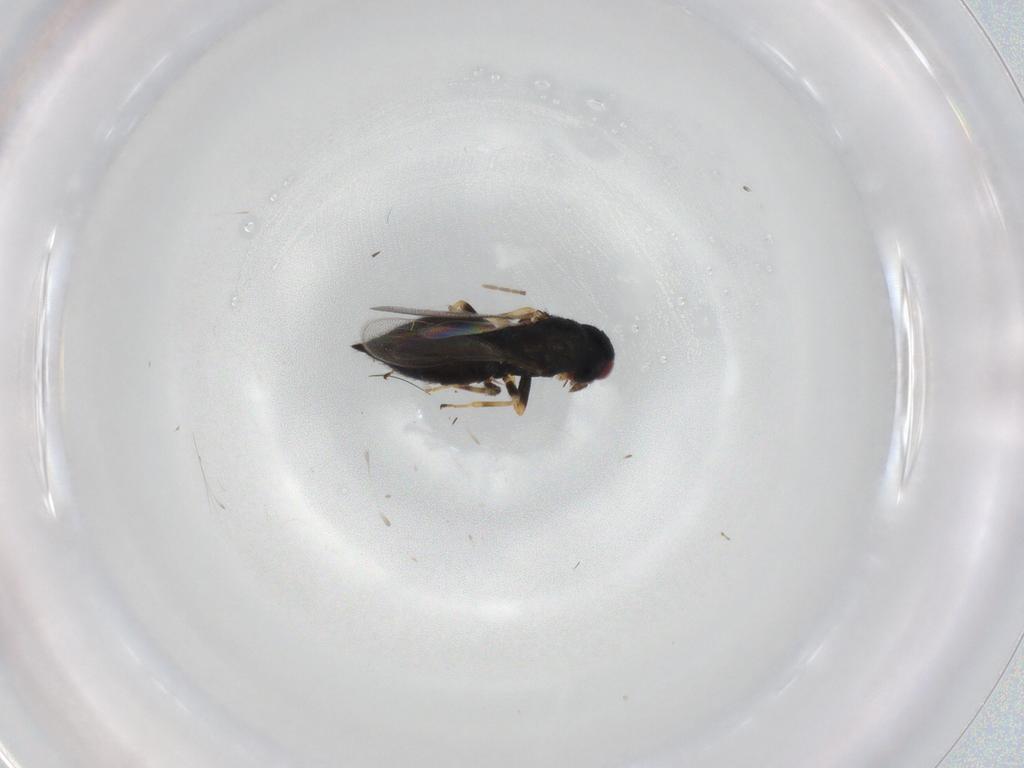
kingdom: Animalia
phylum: Arthropoda
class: Insecta
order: Hymenoptera
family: Eulophidae
